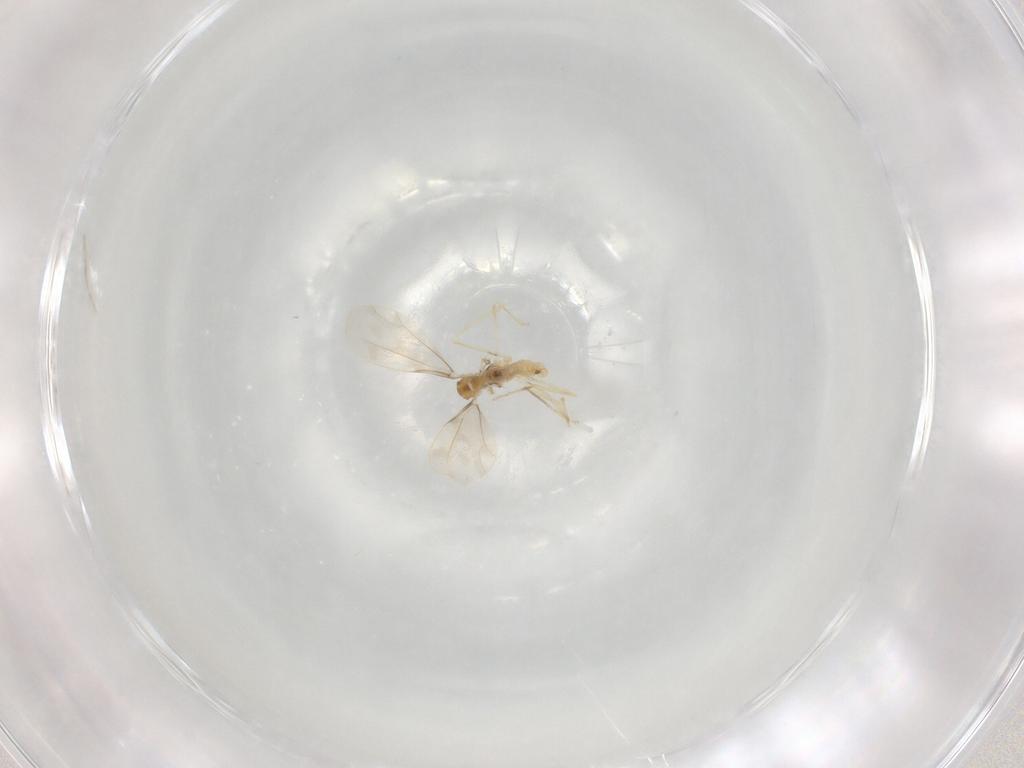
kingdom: Animalia
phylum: Arthropoda
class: Insecta
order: Diptera
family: Cecidomyiidae
